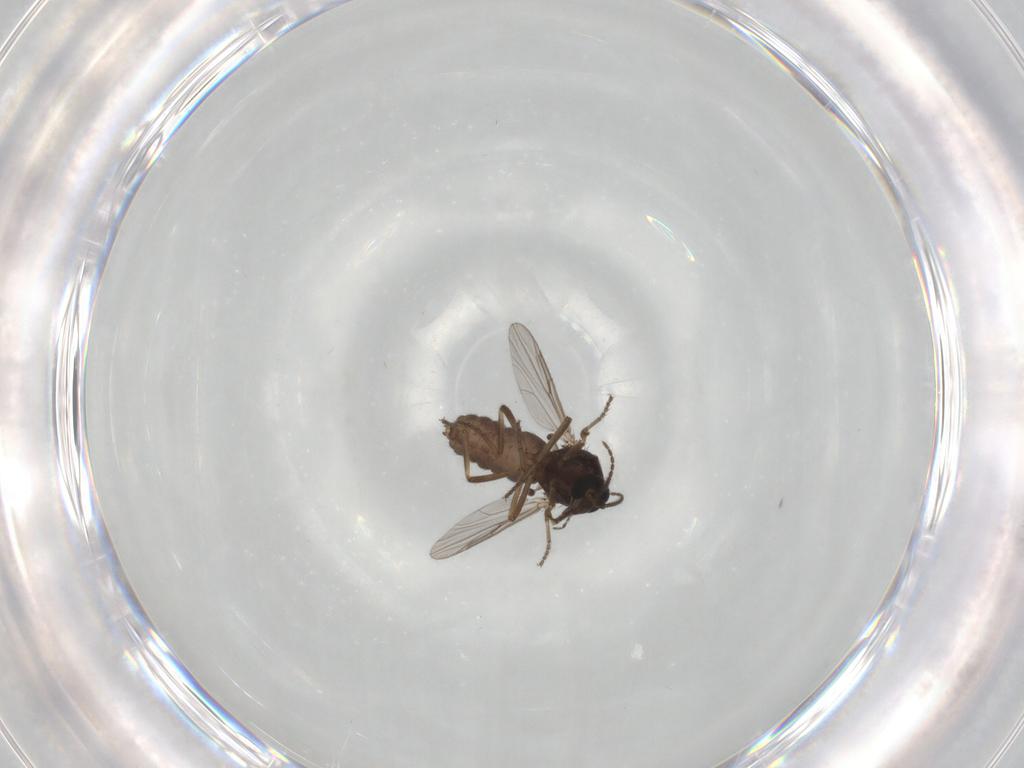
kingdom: Animalia
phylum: Arthropoda
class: Insecta
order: Diptera
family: Ceratopogonidae
